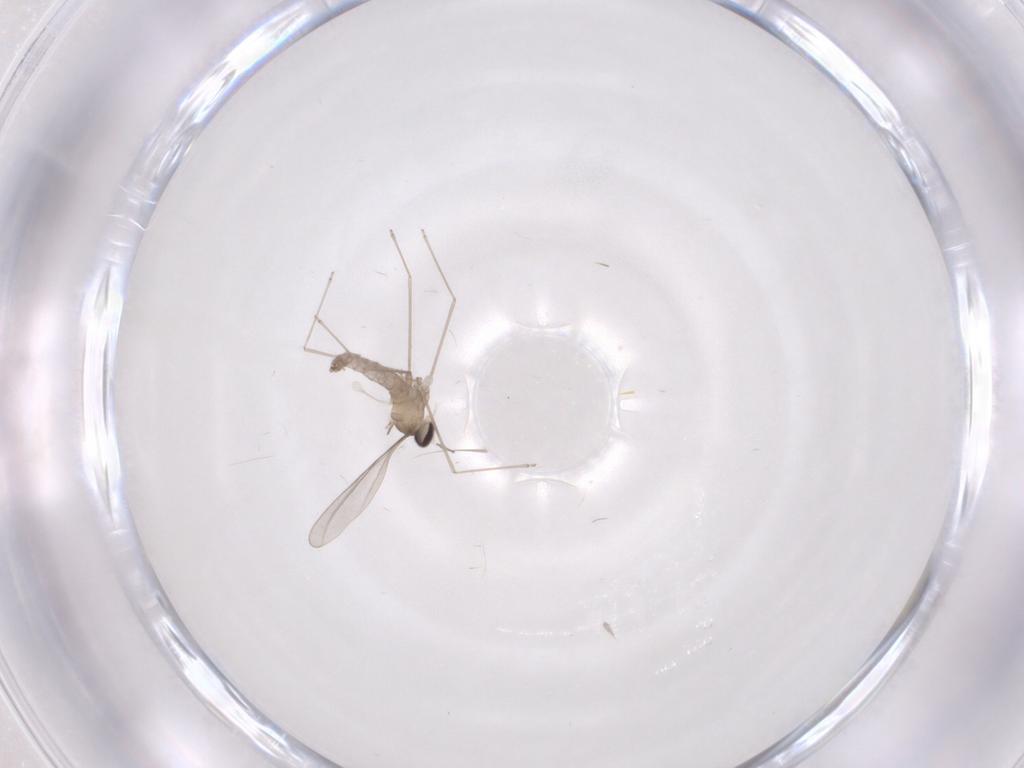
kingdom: Animalia
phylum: Arthropoda
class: Insecta
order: Diptera
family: Cecidomyiidae
